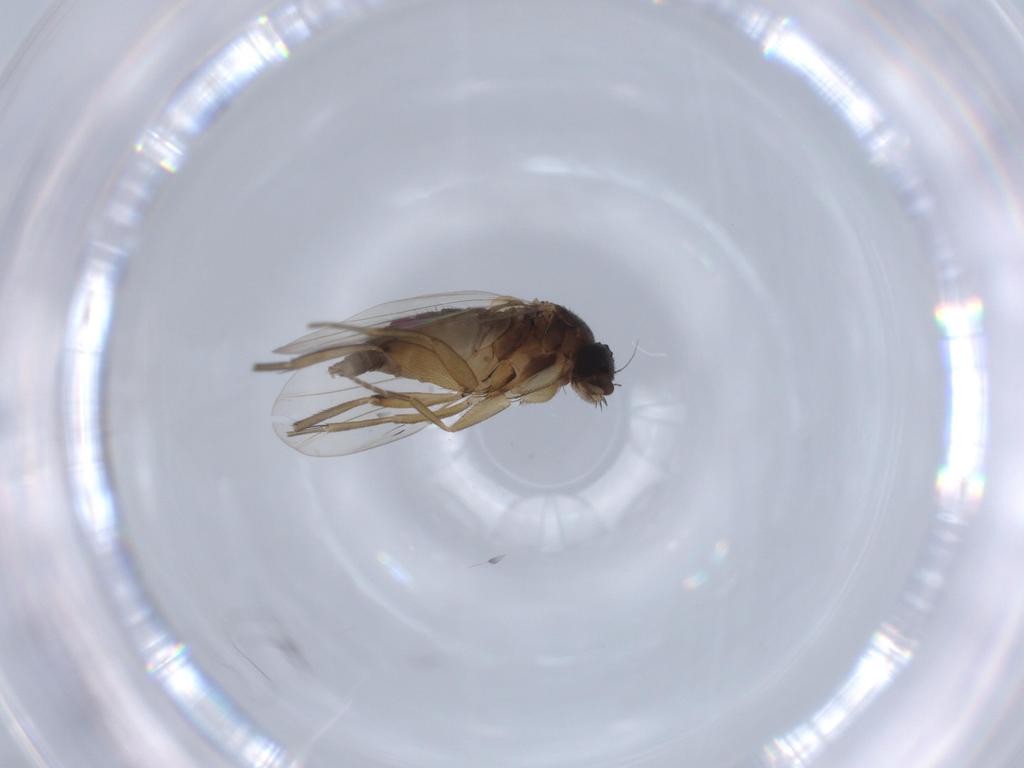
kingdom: Animalia
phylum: Arthropoda
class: Insecta
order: Diptera
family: Phoridae
